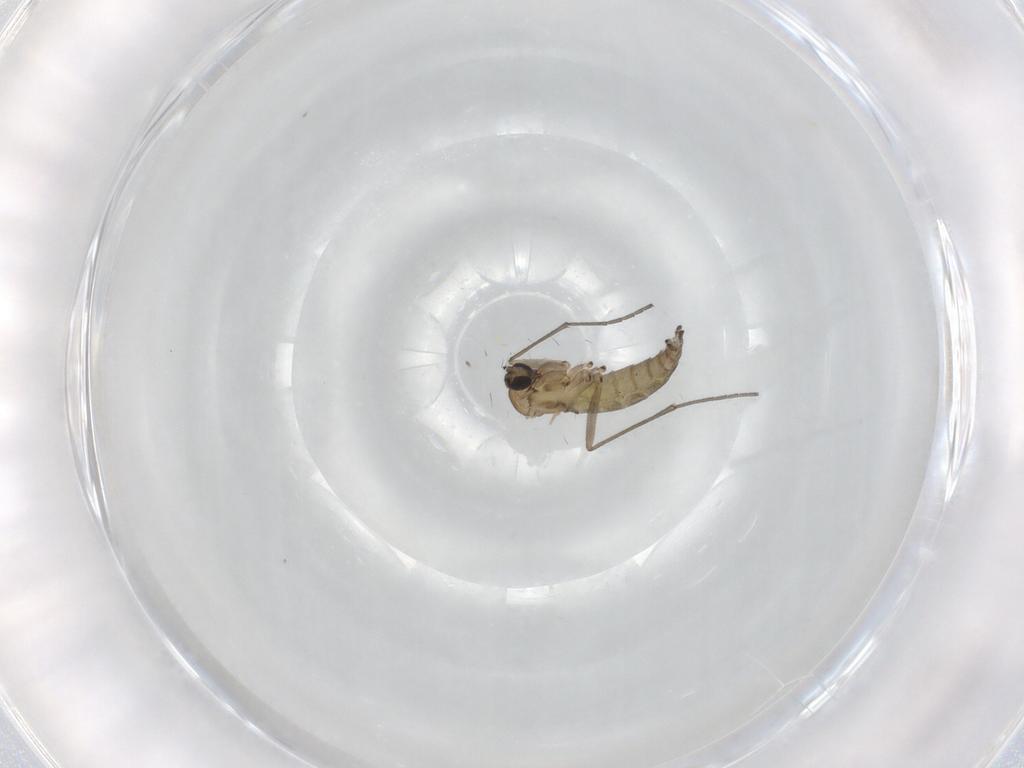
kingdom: Animalia
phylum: Arthropoda
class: Insecta
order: Diptera
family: Sciaridae
